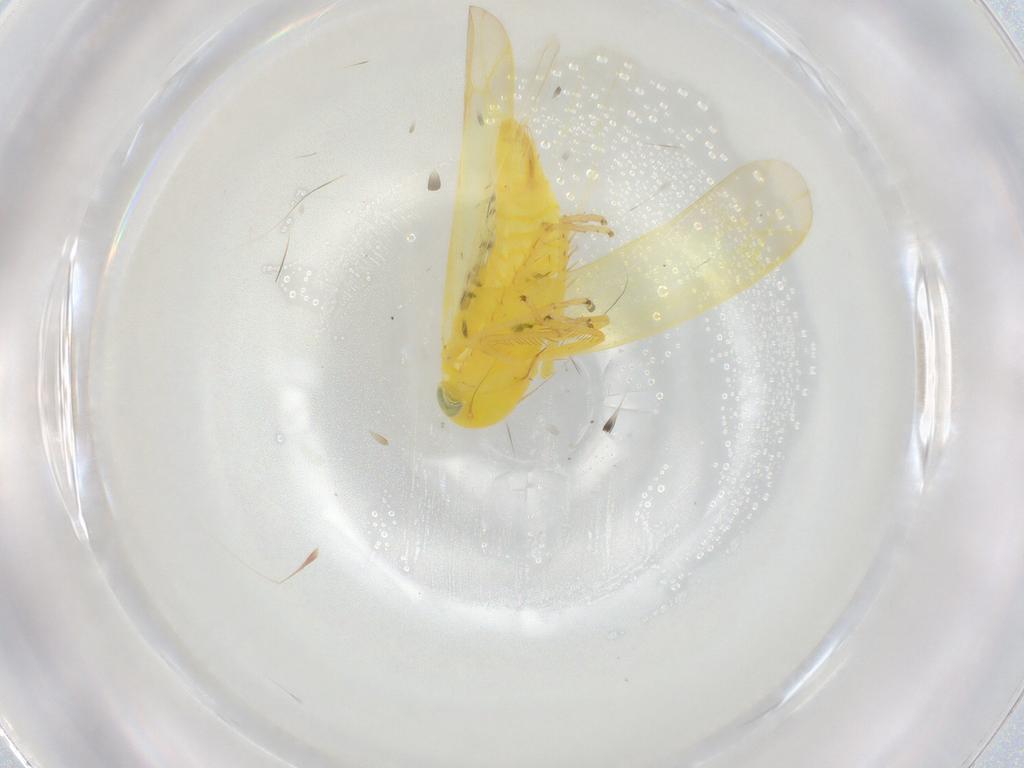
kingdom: Animalia
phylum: Arthropoda
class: Insecta
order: Hemiptera
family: Cicadellidae
